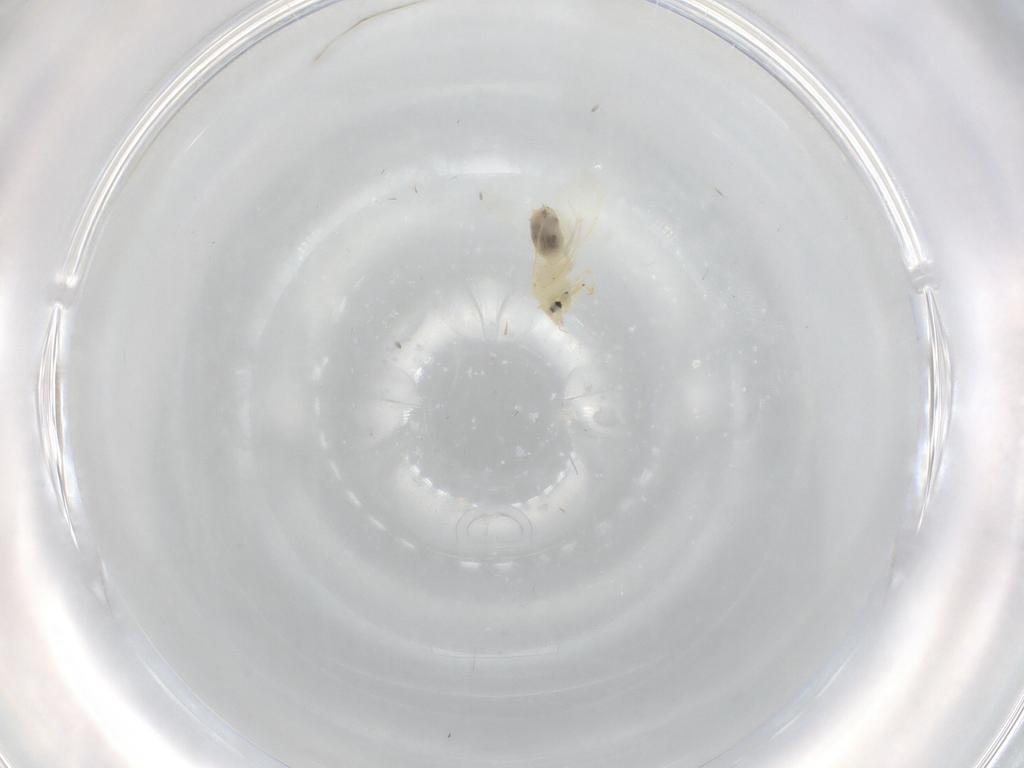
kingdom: Animalia
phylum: Arthropoda
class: Insecta
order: Hemiptera
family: Aleyrodidae
